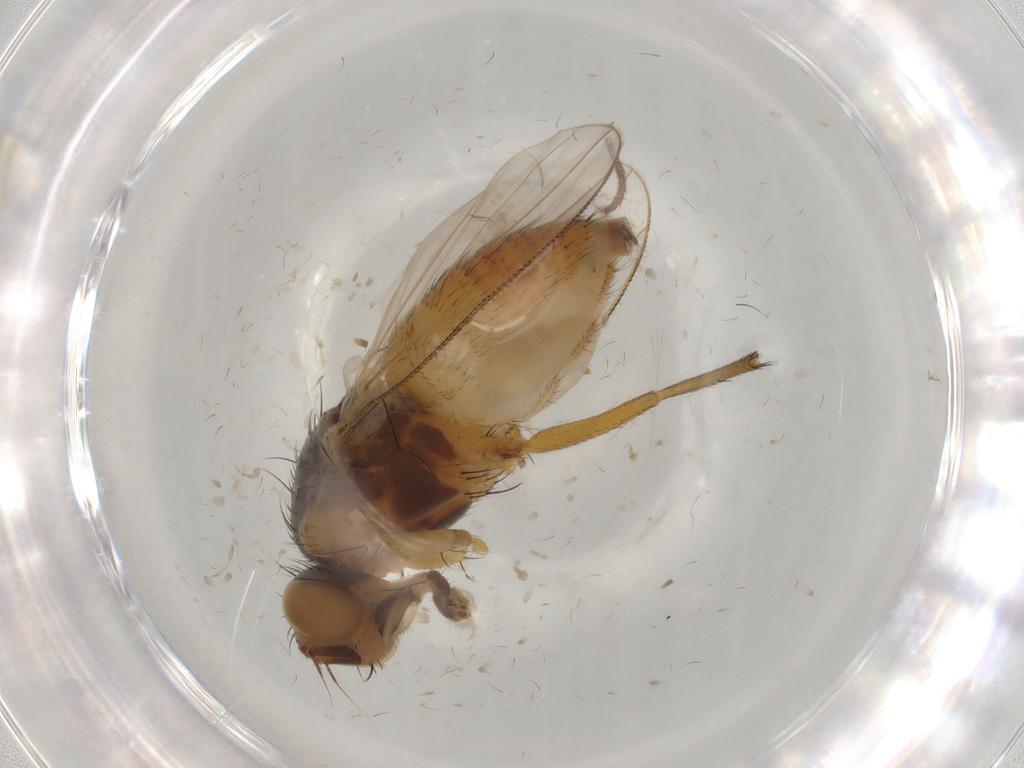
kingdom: Animalia
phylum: Arthropoda
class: Insecta
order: Diptera
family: Muscidae
